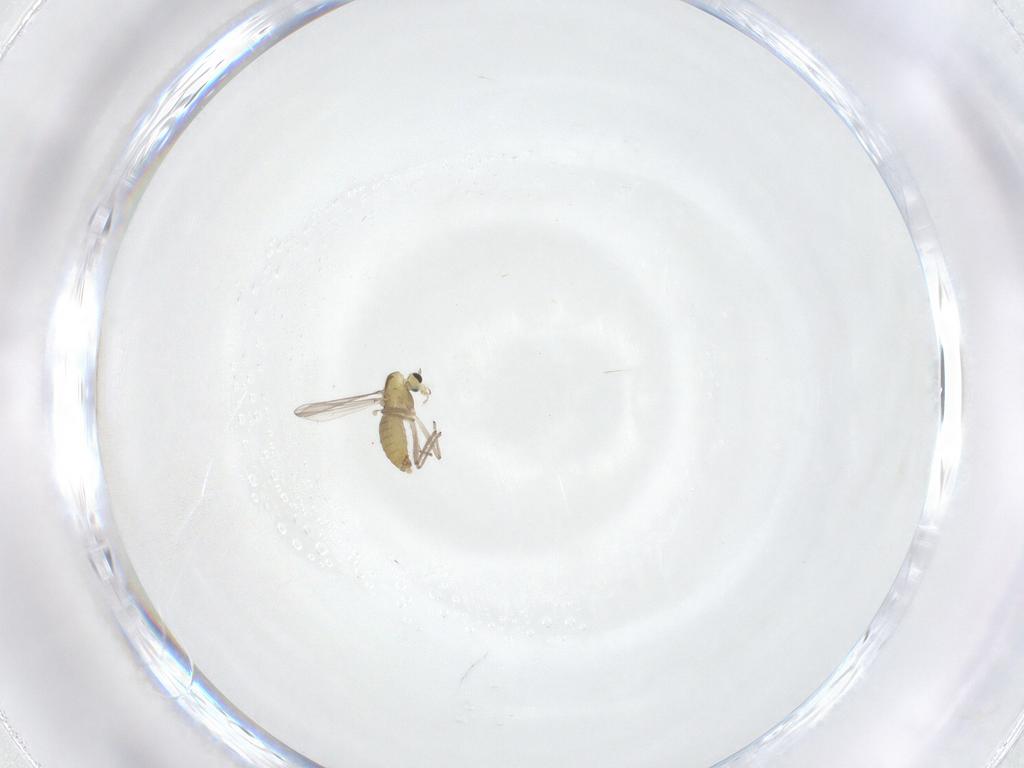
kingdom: Animalia
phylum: Arthropoda
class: Insecta
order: Diptera
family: Chironomidae
